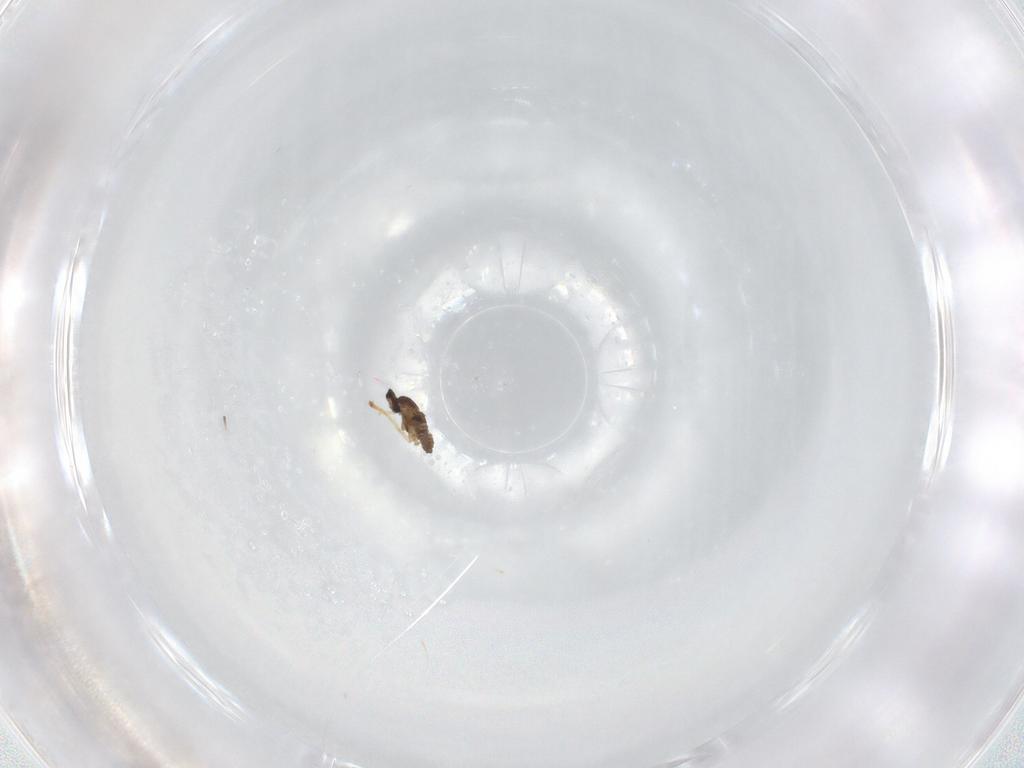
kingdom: Animalia
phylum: Arthropoda
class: Insecta
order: Diptera
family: Cecidomyiidae
